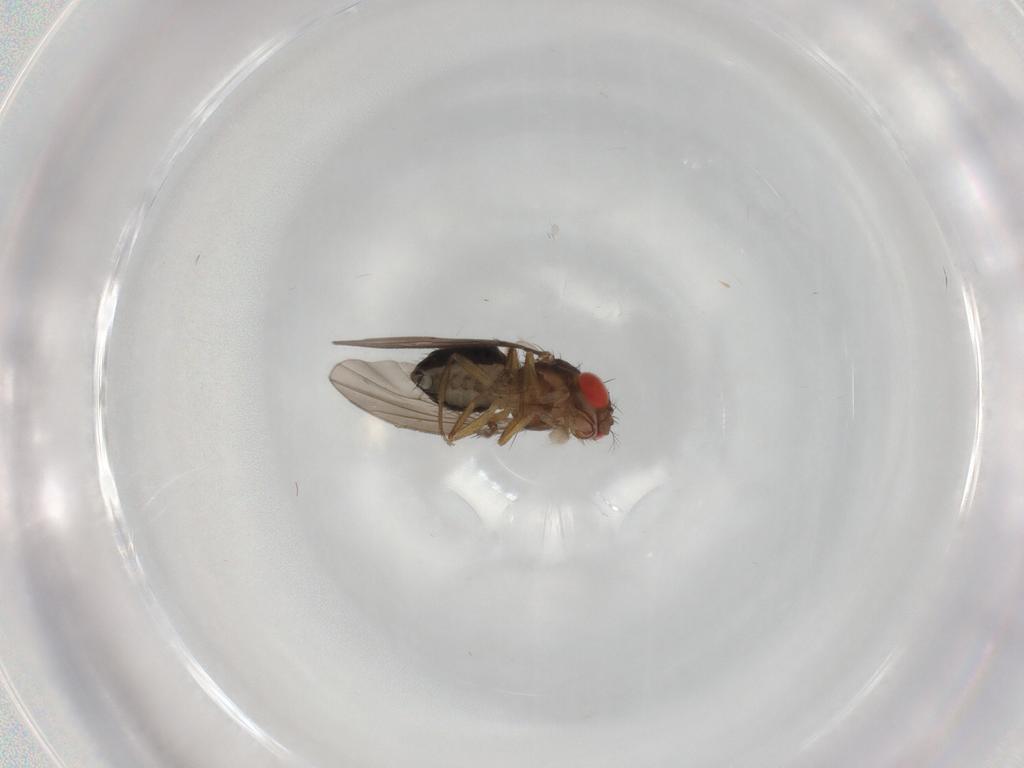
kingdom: Animalia
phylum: Arthropoda
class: Insecta
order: Diptera
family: Drosophilidae
